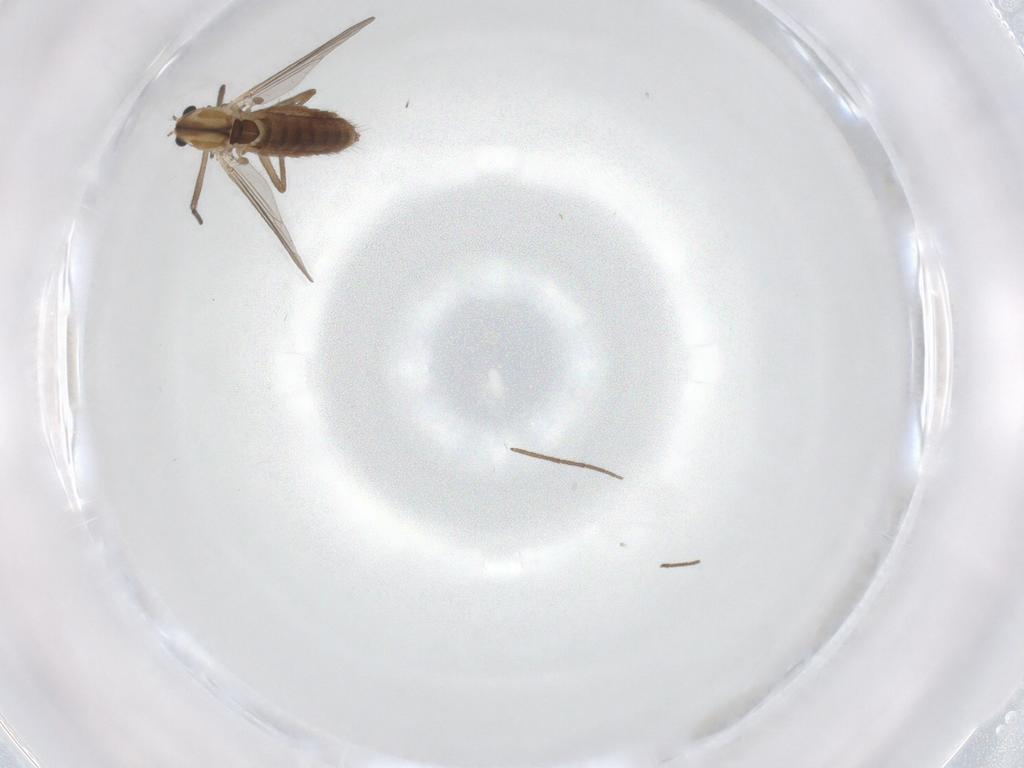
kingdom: Animalia
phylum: Arthropoda
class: Insecta
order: Diptera
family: Chironomidae
